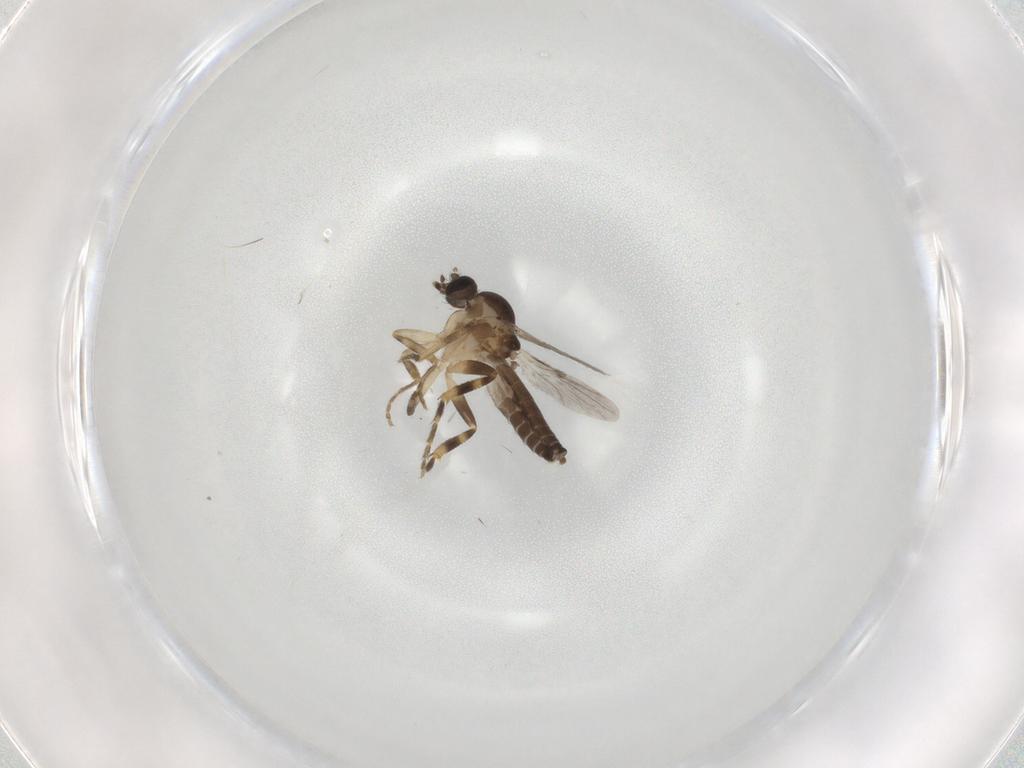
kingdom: Animalia
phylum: Arthropoda
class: Insecta
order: Diptera
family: Ceratopogonidae
